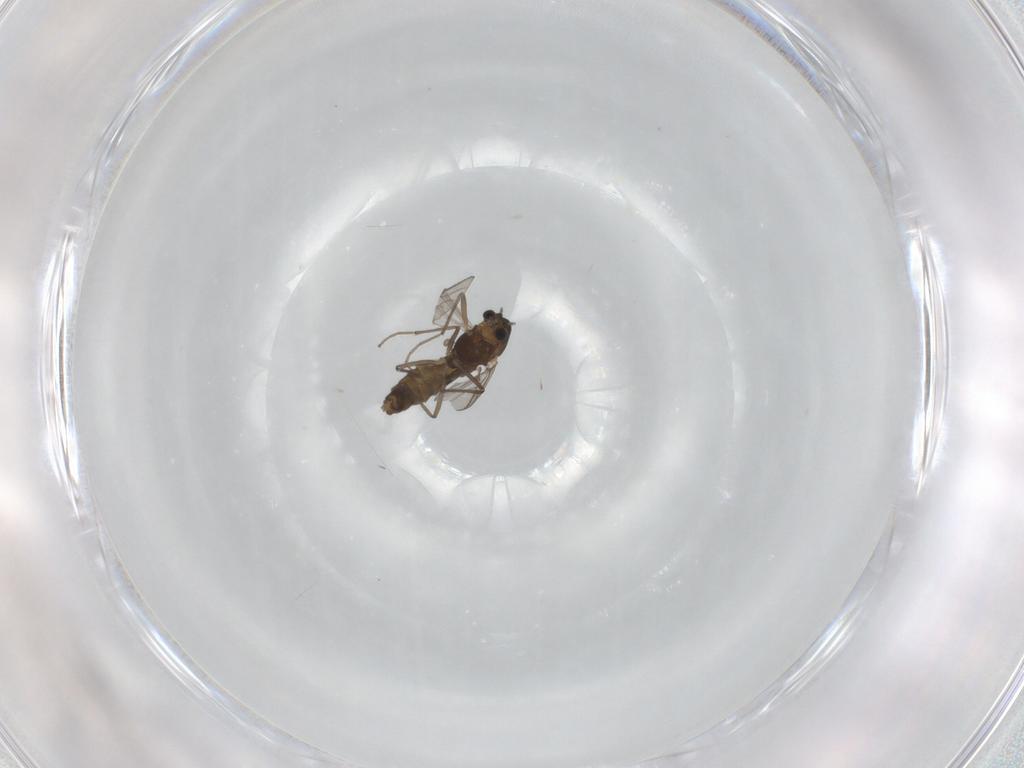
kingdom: Animalia
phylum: Arthropoda
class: Insecta
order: Diptera
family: Chironomidae
